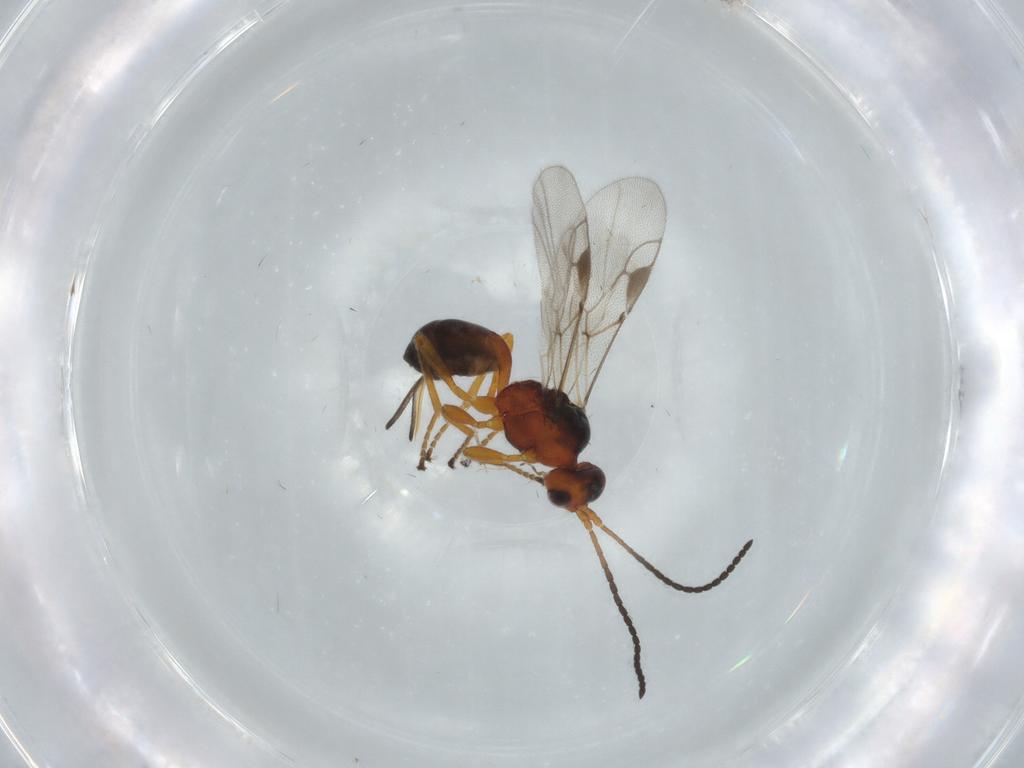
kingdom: Animalia
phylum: Arthropoda
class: Insecta
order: Hymenoptera
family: Braconidae
